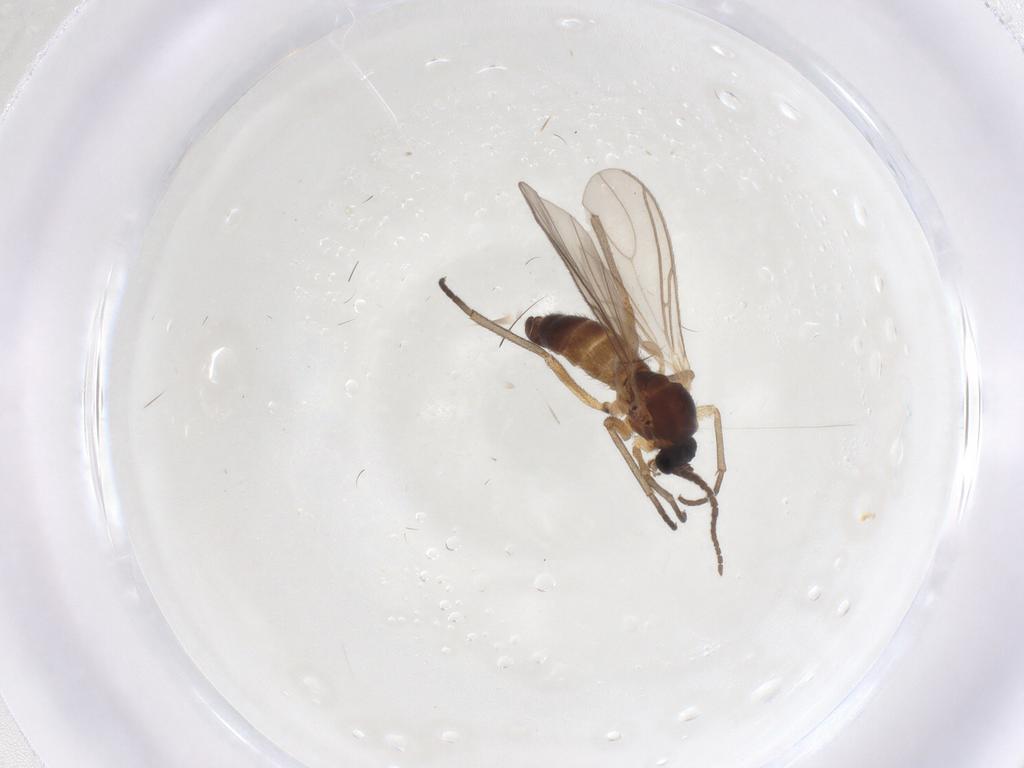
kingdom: Animalia
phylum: Arthropoda
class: Insecta
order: Diptera
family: Sciaridae
